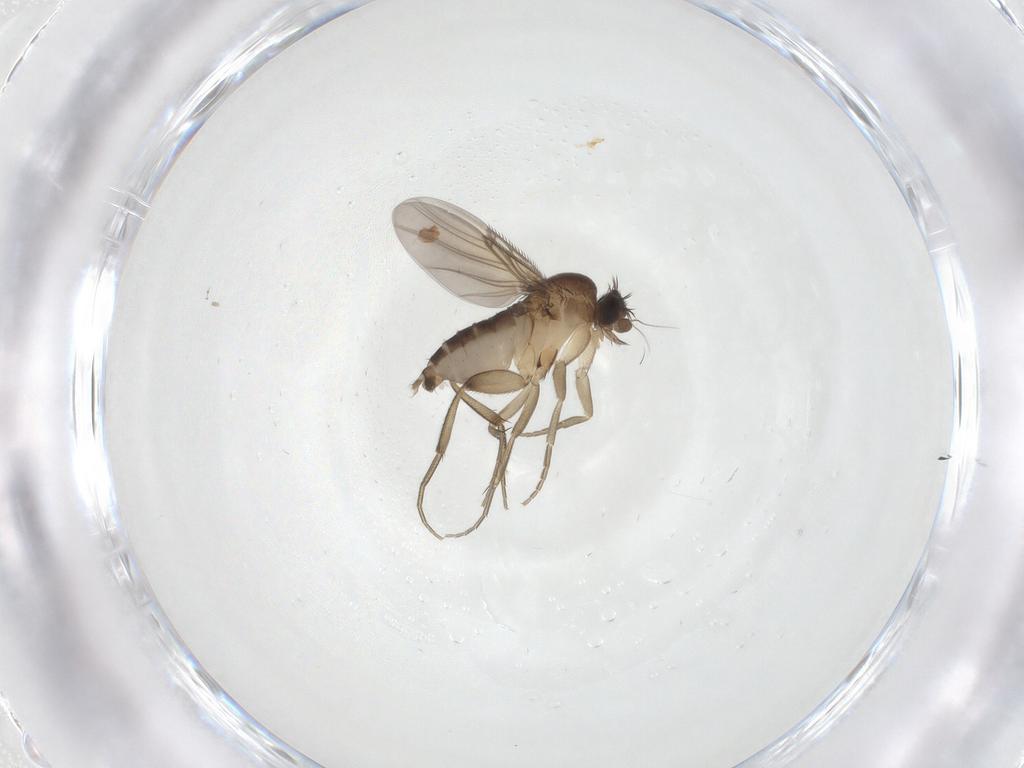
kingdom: Animalia
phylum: Arthropoda
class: Insecta
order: Diptera
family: Phoridae
